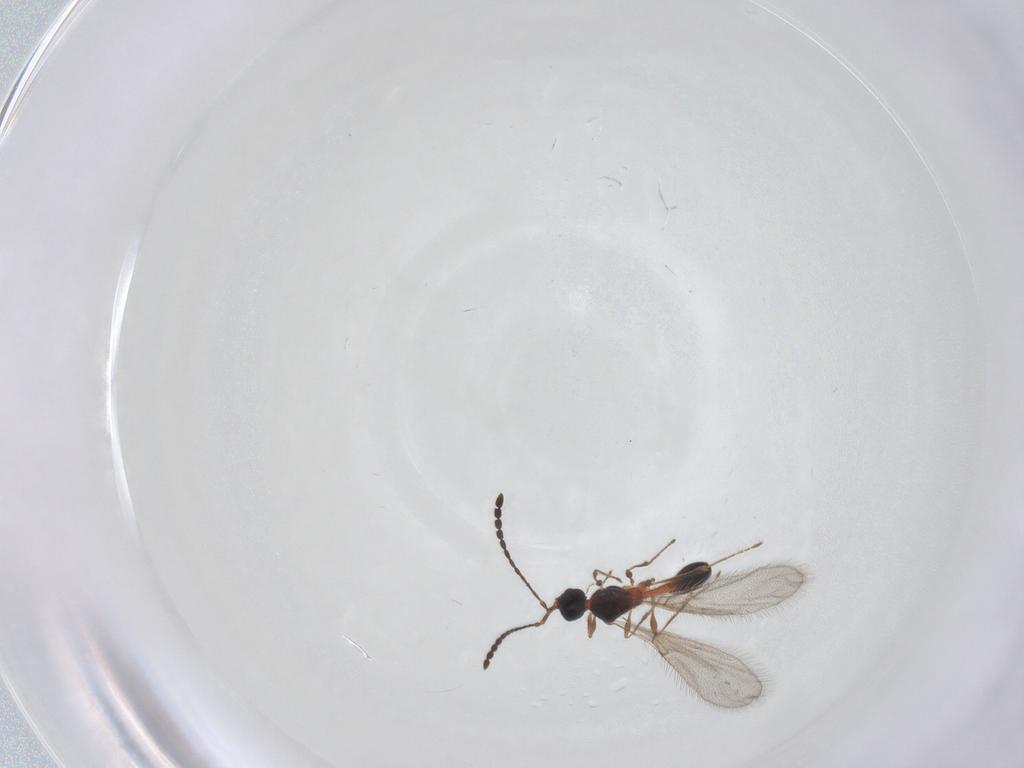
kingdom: Animalia
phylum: Arthropoda
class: Insecta
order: Hymenoptera
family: Diapriidae
